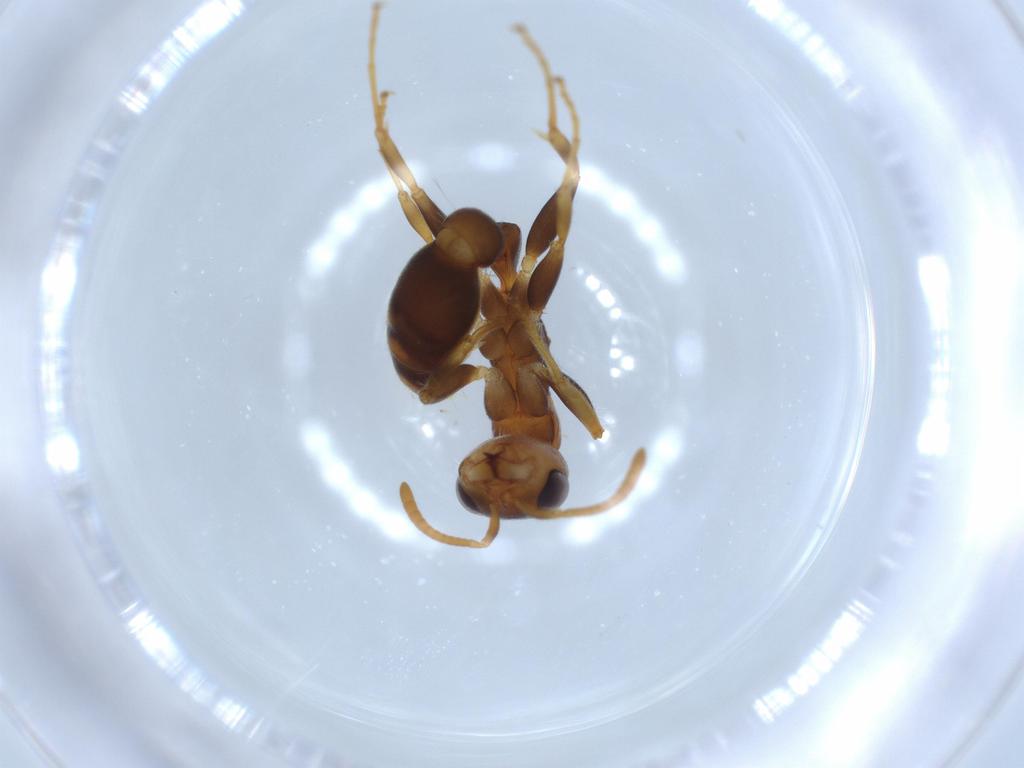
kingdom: Animalia
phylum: Arthropoda
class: Insecta
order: Hymenoptera
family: Formicidae
